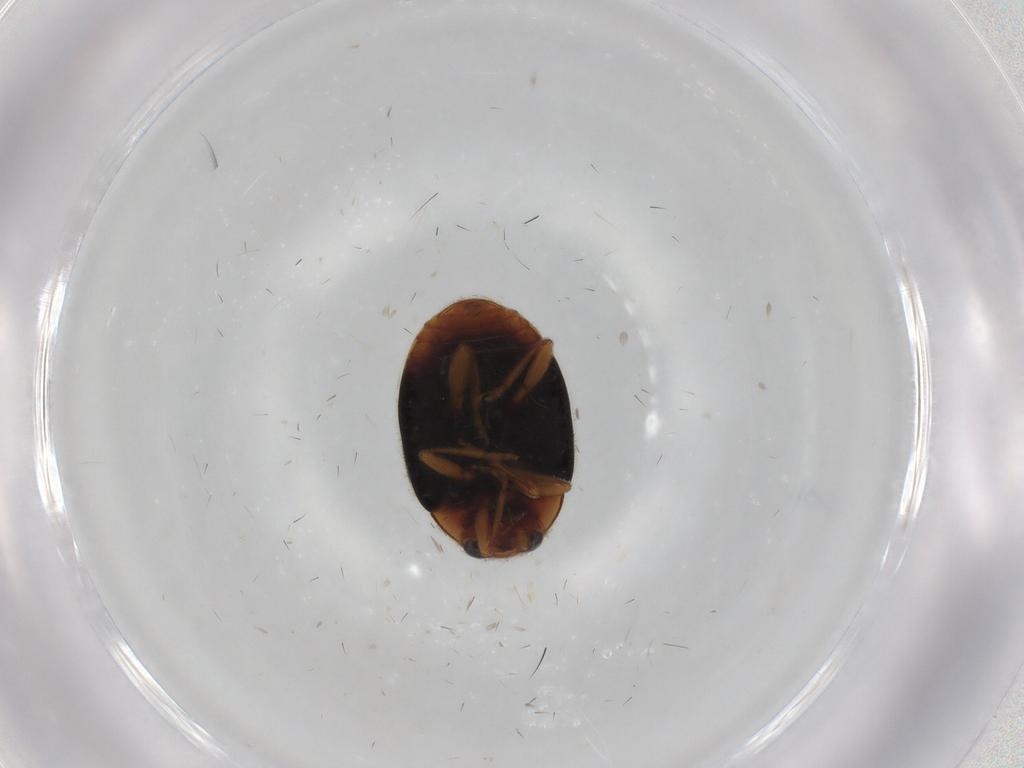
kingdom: Animalia
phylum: Arthropoda
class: Insecta
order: Coleoptera
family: Coccinellidae
